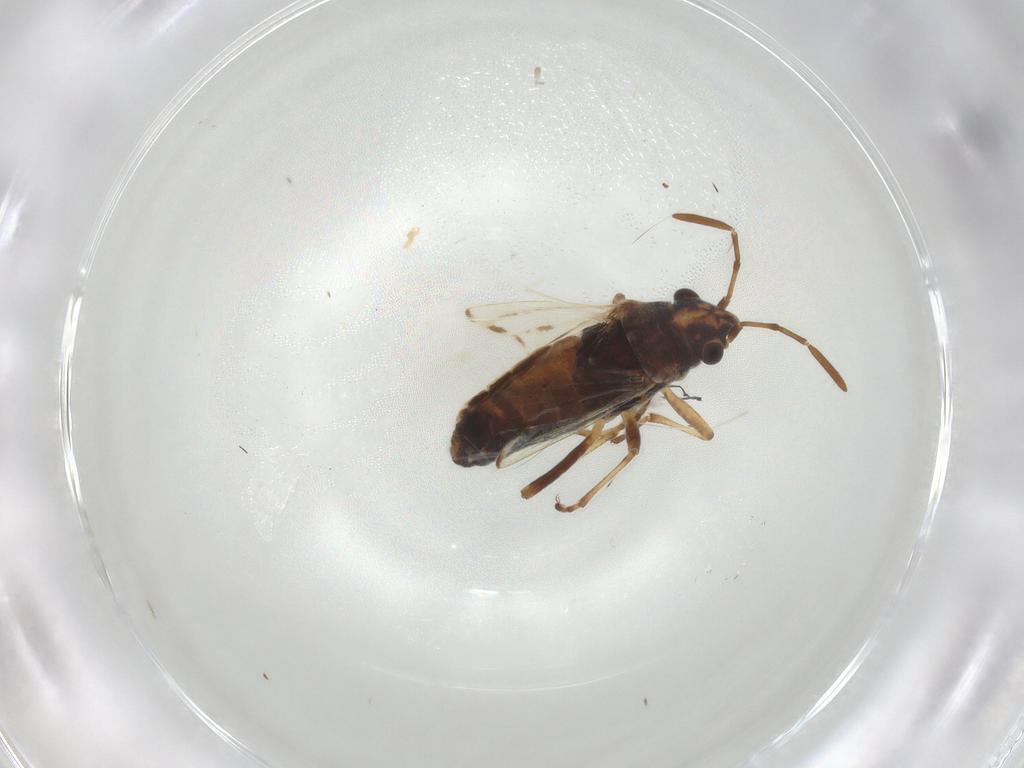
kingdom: Animalia
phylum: Arthropoda
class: Insecta
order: Hemiptera
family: Lygaeidae
